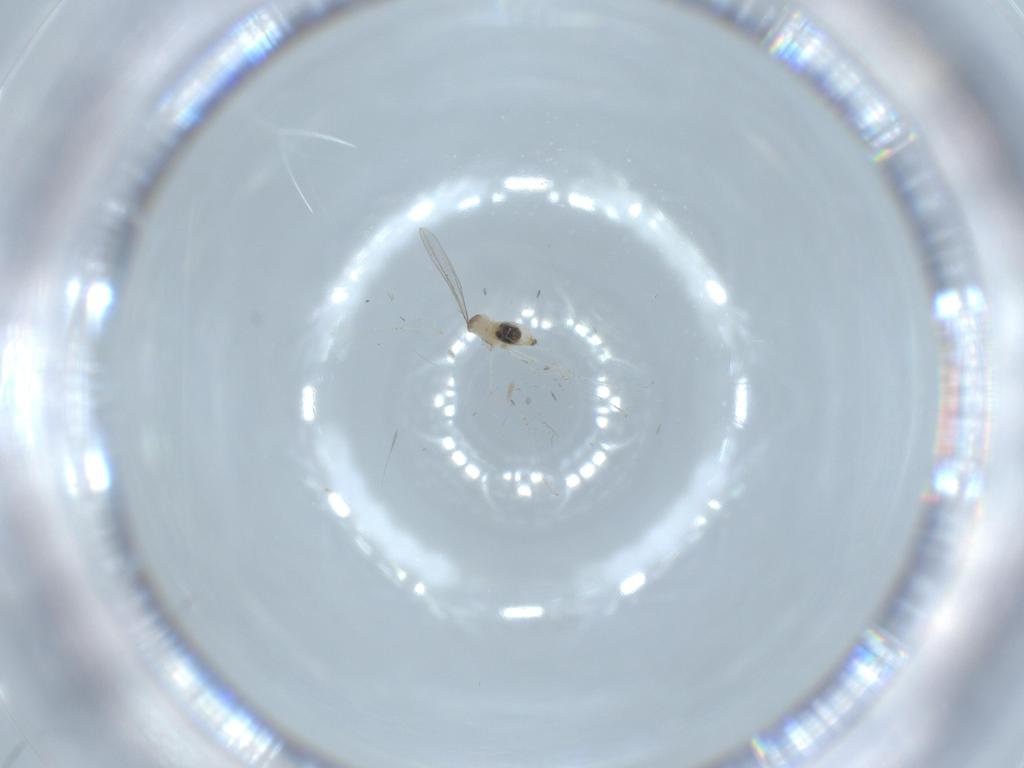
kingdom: Animalia
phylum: Arthropoda
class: Insecta
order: Diptera
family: Cecidomyiidae
